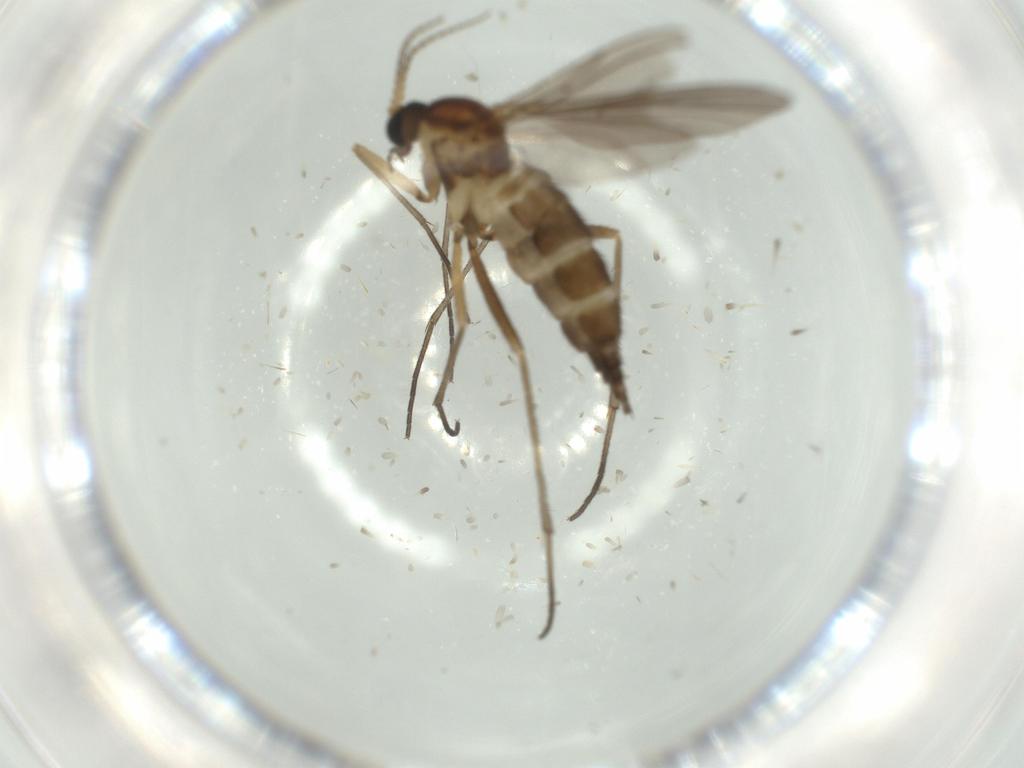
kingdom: Animalia
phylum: Arthropoda
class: Insecta
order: Diptera
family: Sciaridae
